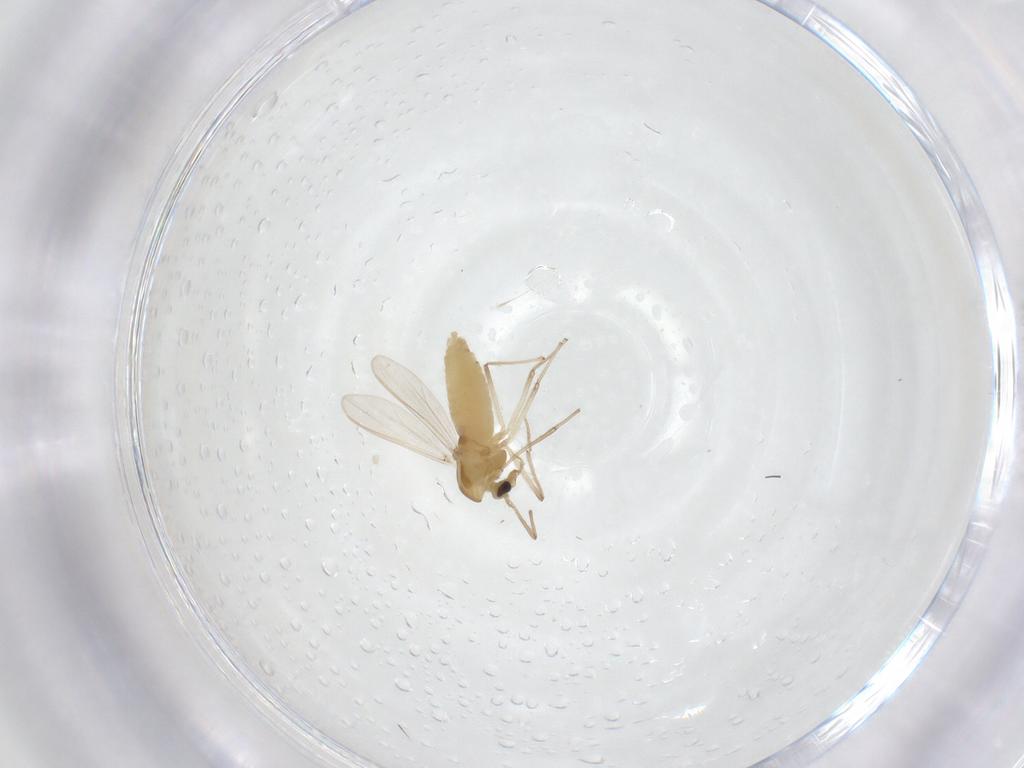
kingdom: Animalia
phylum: Arthropoda
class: Insecta
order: Diptera
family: Chironomidae
